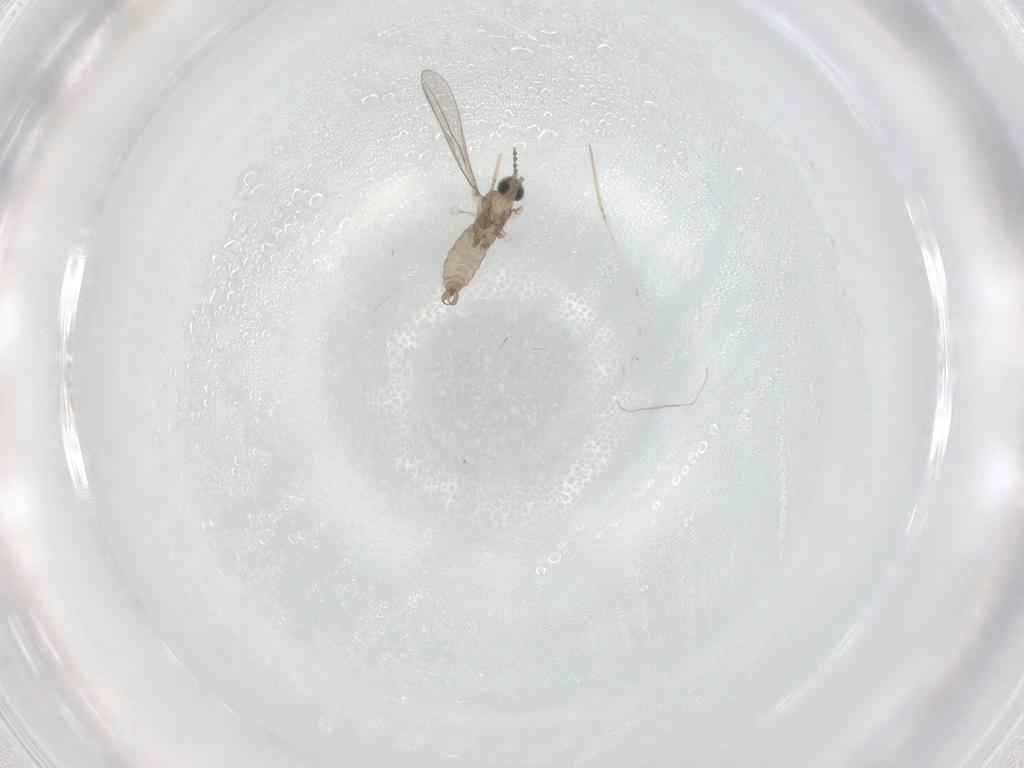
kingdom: Animalia
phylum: Arthropoda
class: Insecta
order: Diptera
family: Cecidomyiidae
